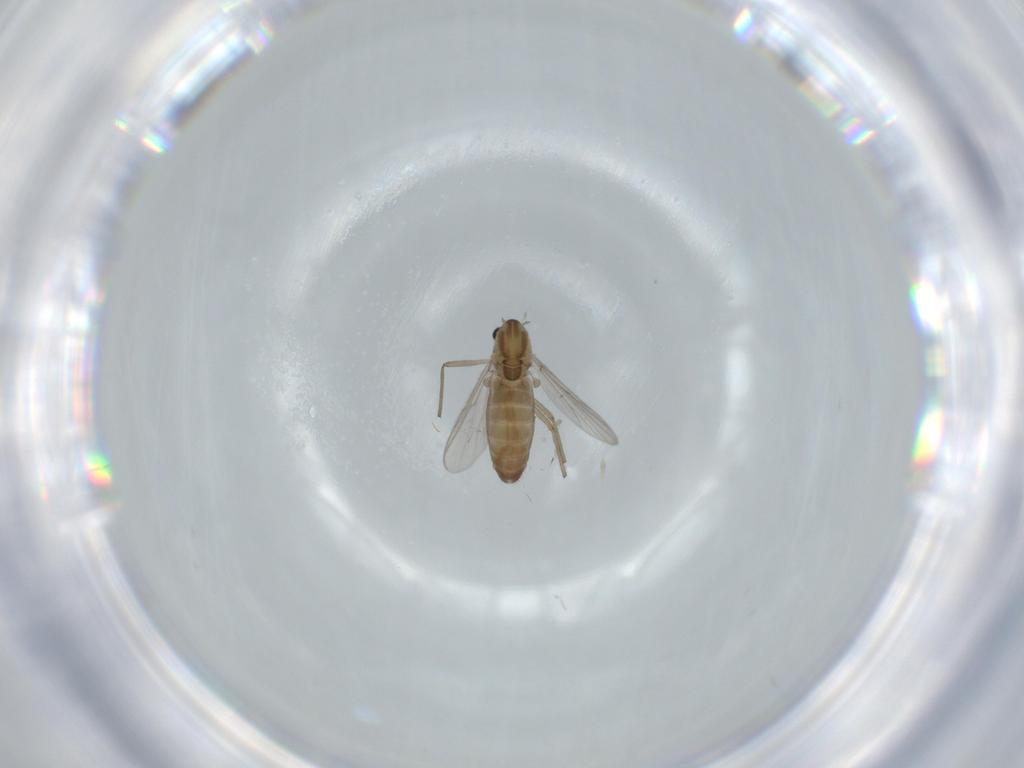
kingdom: Animalia
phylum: Arthropoda
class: Insecta
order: Diptera
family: Chironomidae
